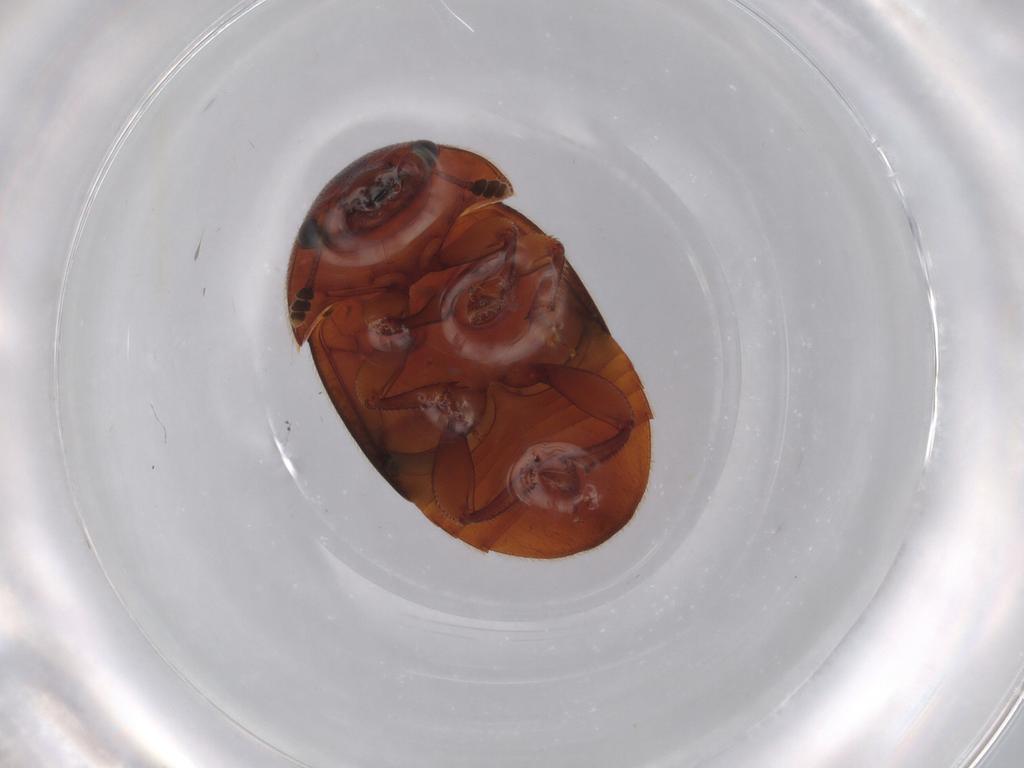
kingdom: Animalia
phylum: Arthropoda
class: Insecta
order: Coleoptera
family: Nitidulidae
